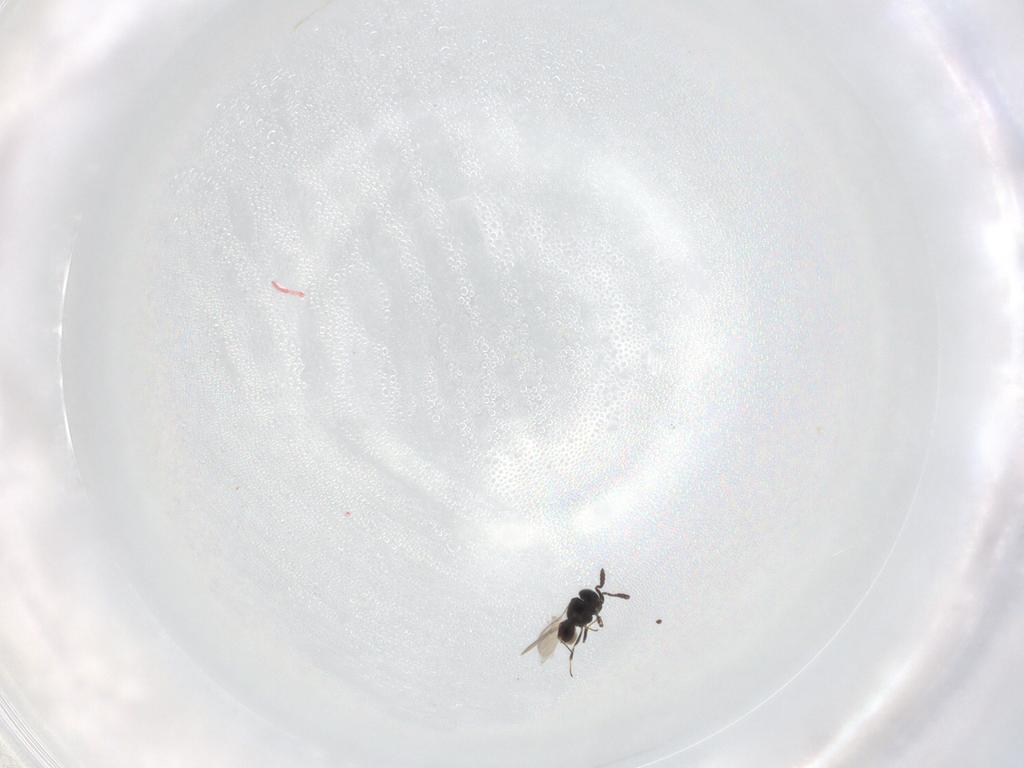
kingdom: Animalia
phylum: Arthropoda
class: Insecta
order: Hymenoptera
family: Scelionidae
